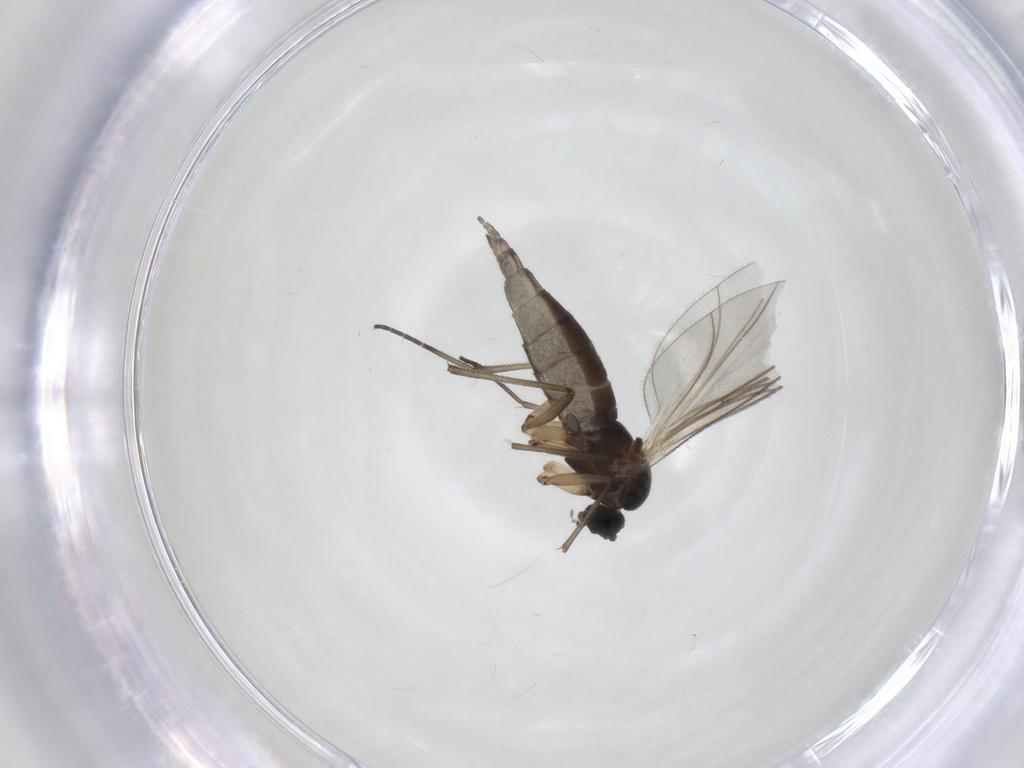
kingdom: Animalia
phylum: Arthropoda
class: Insecta
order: Diptera
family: Sciaridae
